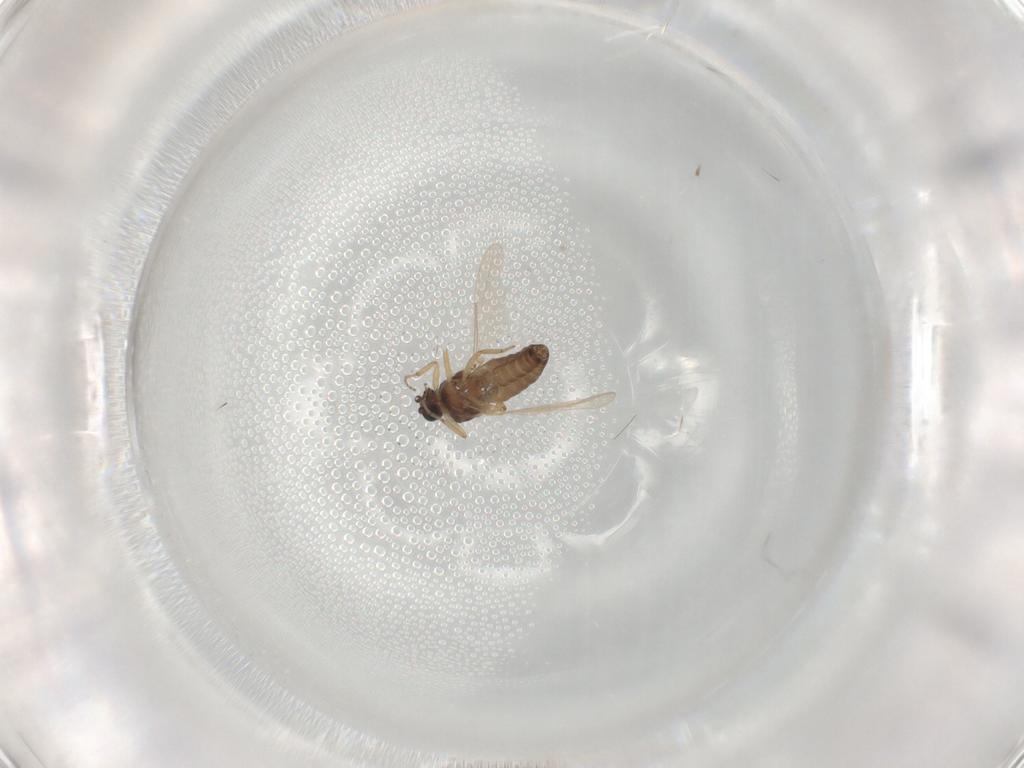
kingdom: Animalia
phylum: Arthropoda
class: Insecta
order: Diptera
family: Ceratopogonidae
